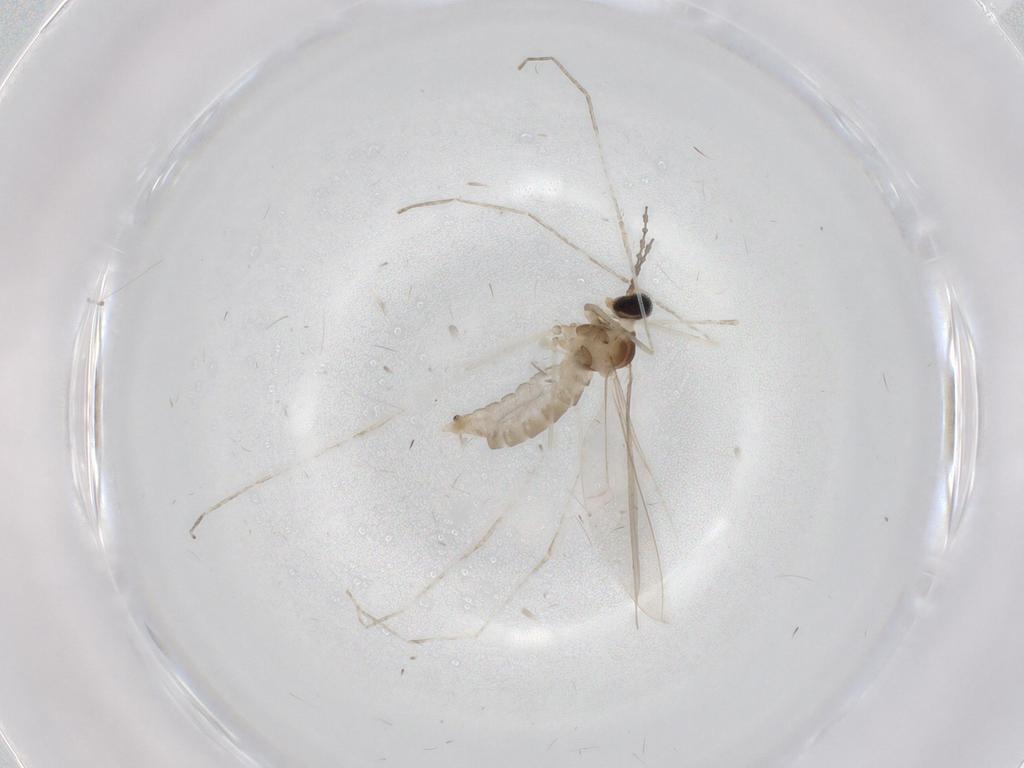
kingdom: Animalia
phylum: Arthropoda
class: Insecta
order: Diptera
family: Cecidomyiidae
